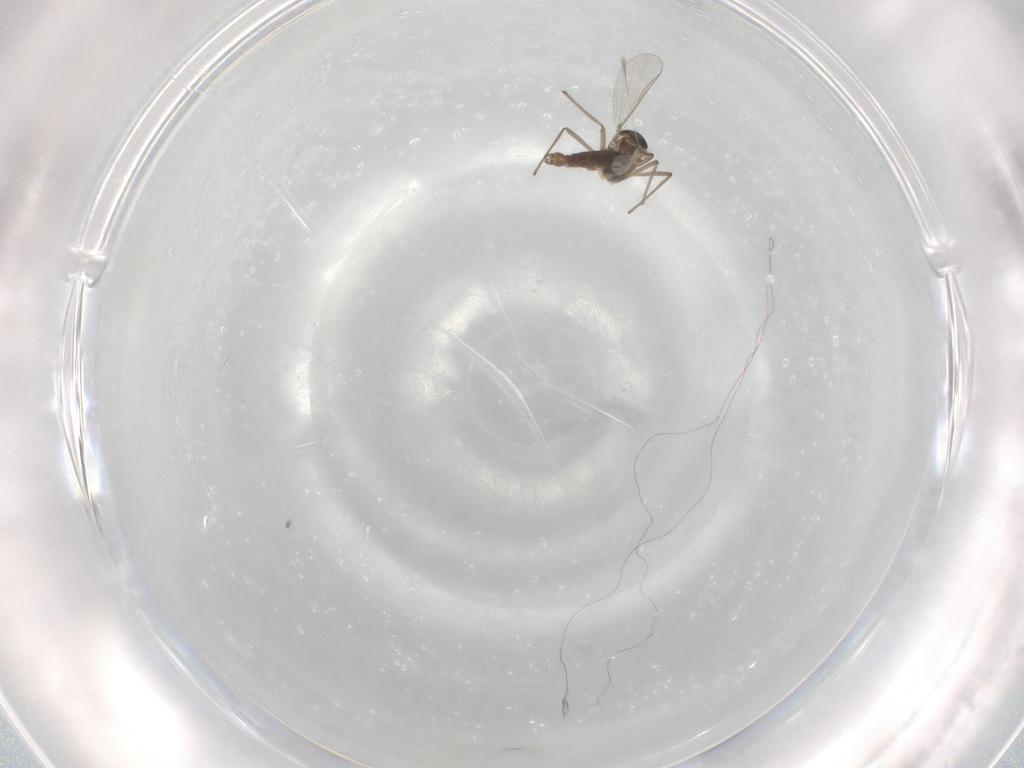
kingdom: Animalia
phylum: Arthropoda
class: Insecta
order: Diptera
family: Chironomidae
